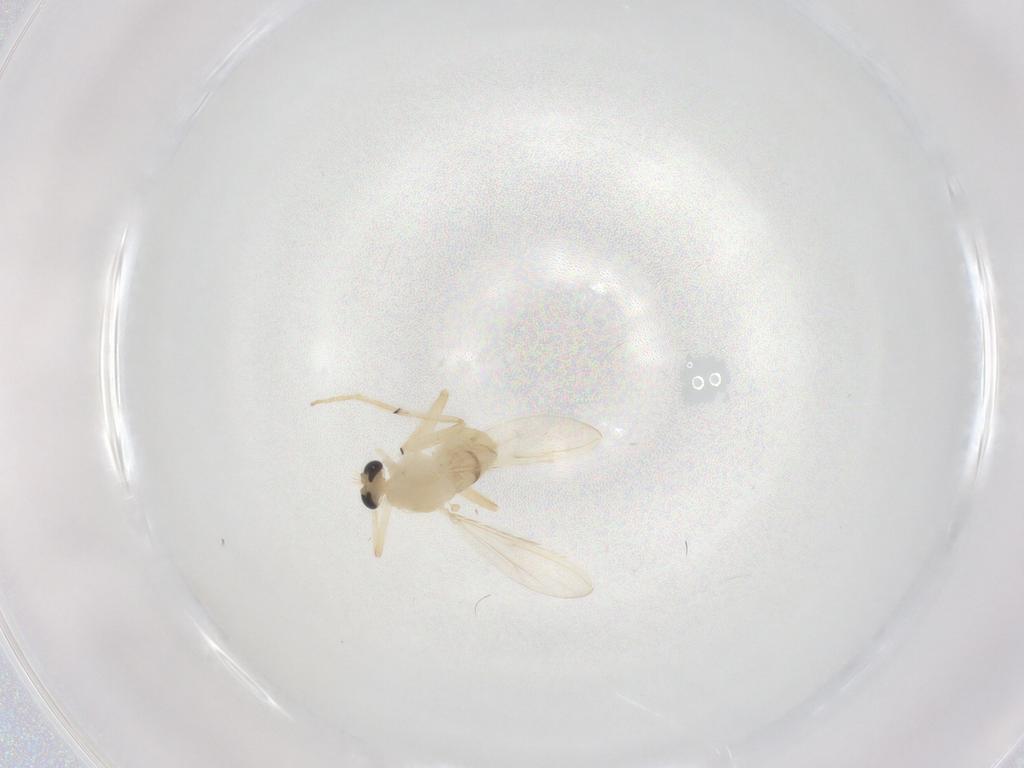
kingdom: Animalia
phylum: Arthropoda
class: Insecta
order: Diptera
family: Chironomidae
